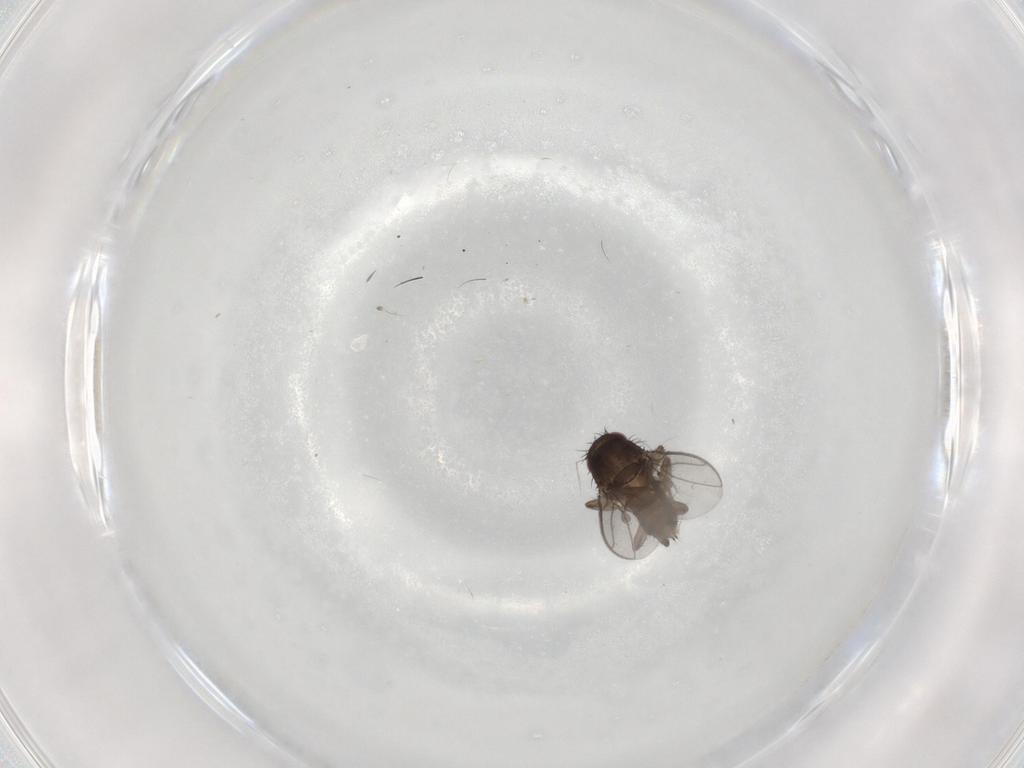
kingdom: Animalia
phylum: Arthropoda
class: Insecta
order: Diptera
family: Sphaeroceridae
